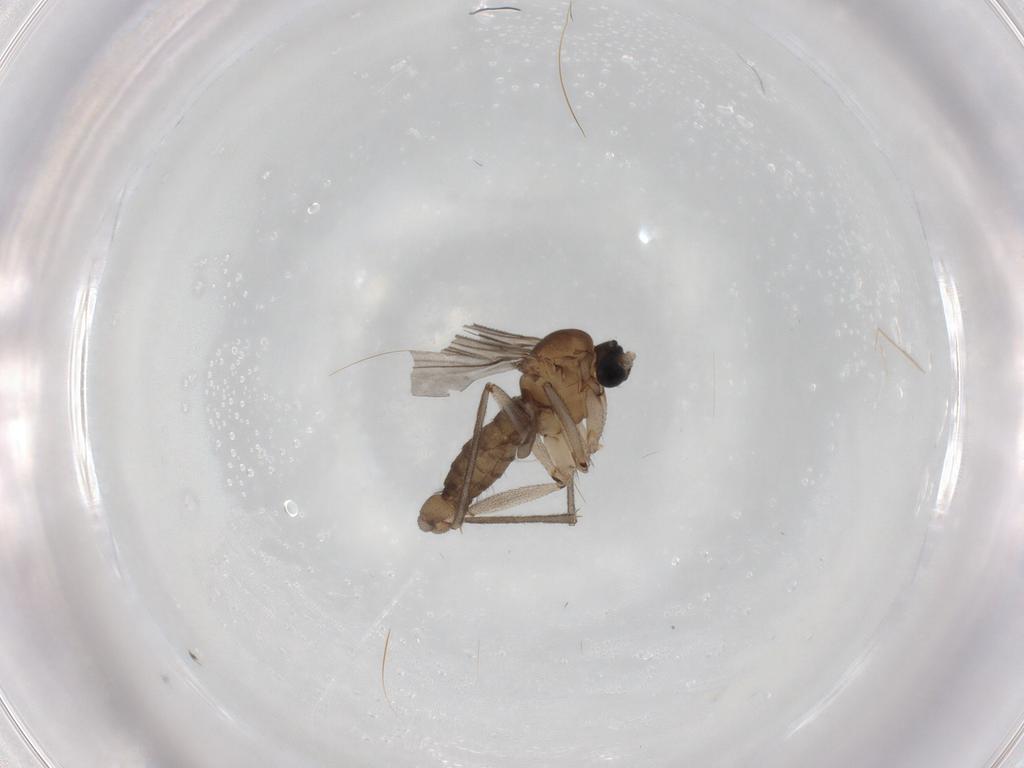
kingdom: Animalia
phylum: Arthropoda
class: Insecta
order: Diptera
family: Sciaridae
